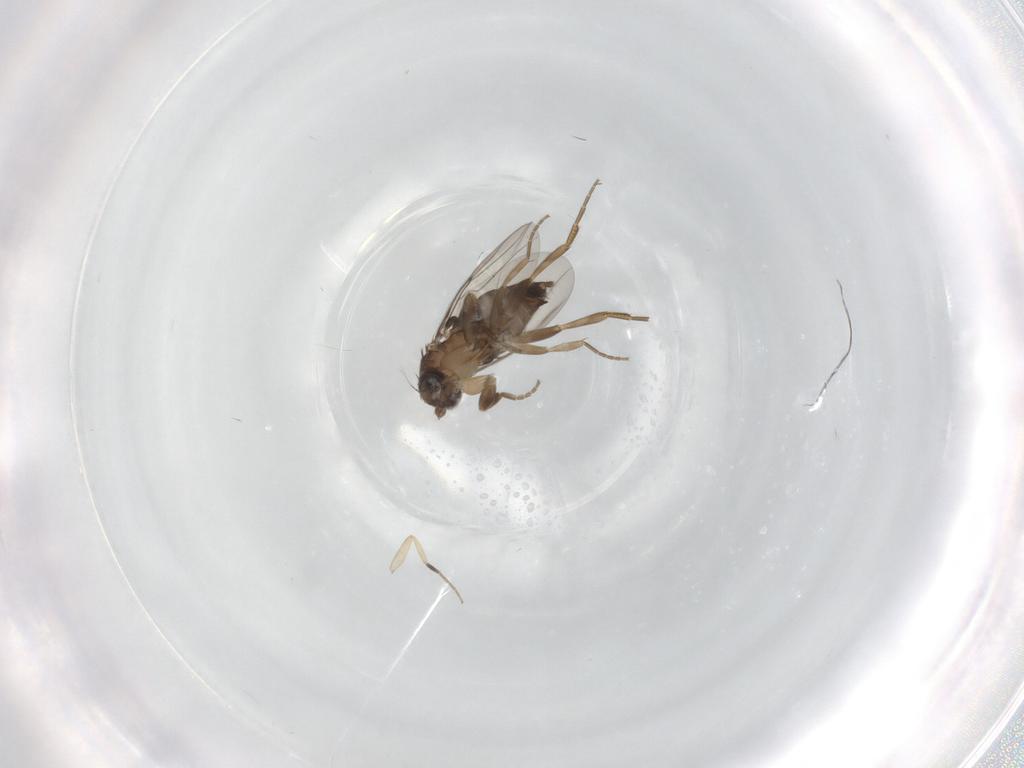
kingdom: Animalia
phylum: Arthropoda
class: Insecta
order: Diptera
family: Phoridae
